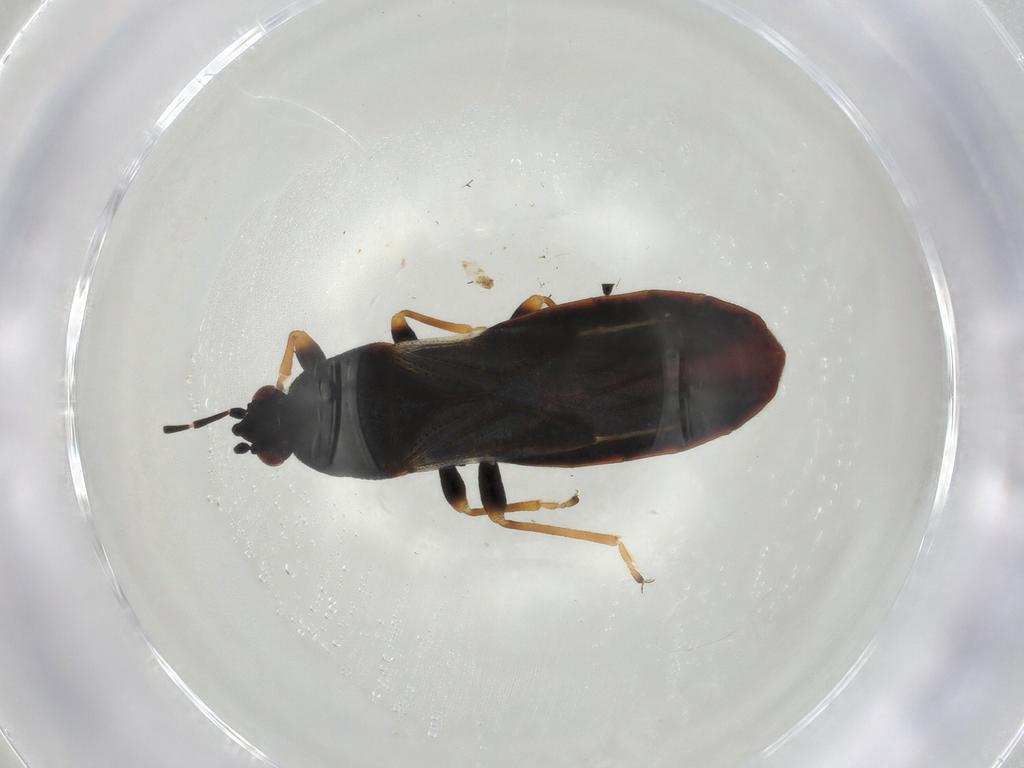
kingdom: Animalia
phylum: Arthropoda
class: Insecta
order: Hemiptera
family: Blissidae
